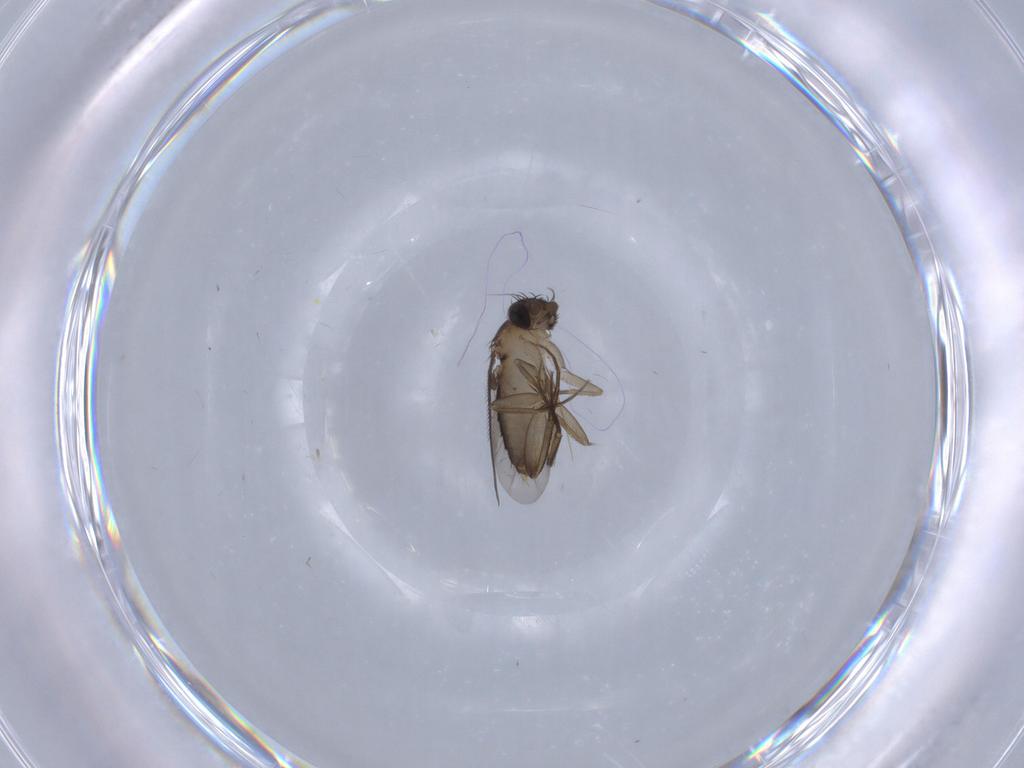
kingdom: Animalia
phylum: Arthropoda
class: Insecta
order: Diptera
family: Phoridae
